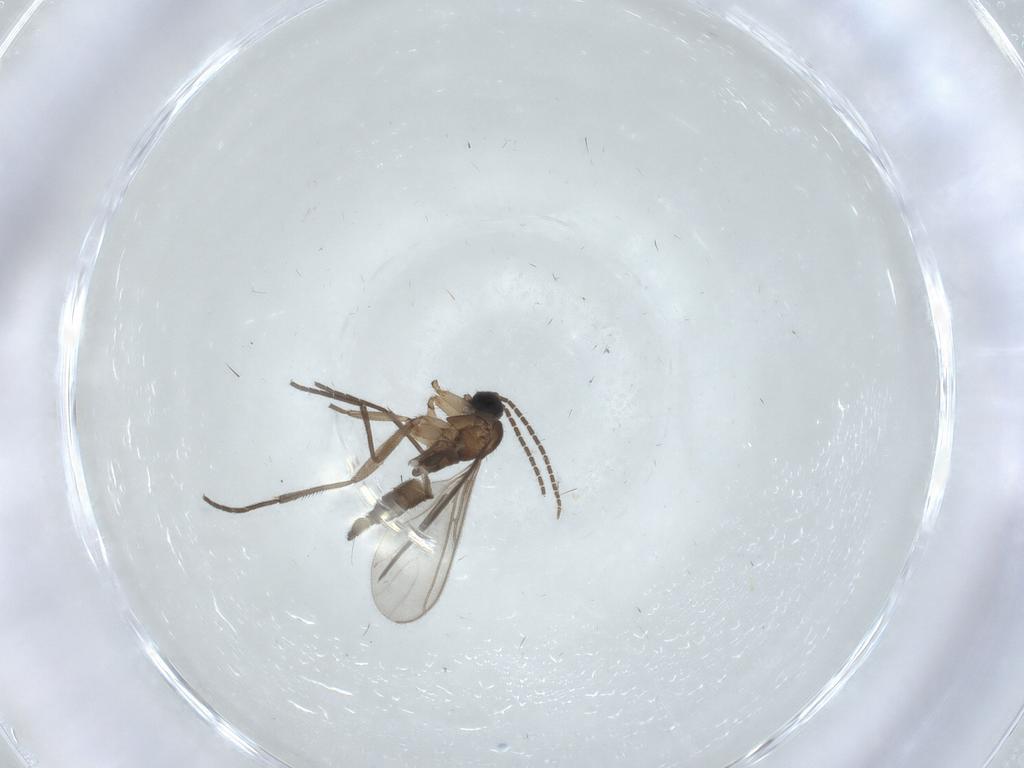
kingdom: Animalia
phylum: Arthropoda
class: Insecta
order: Diptera
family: Sciaridae
